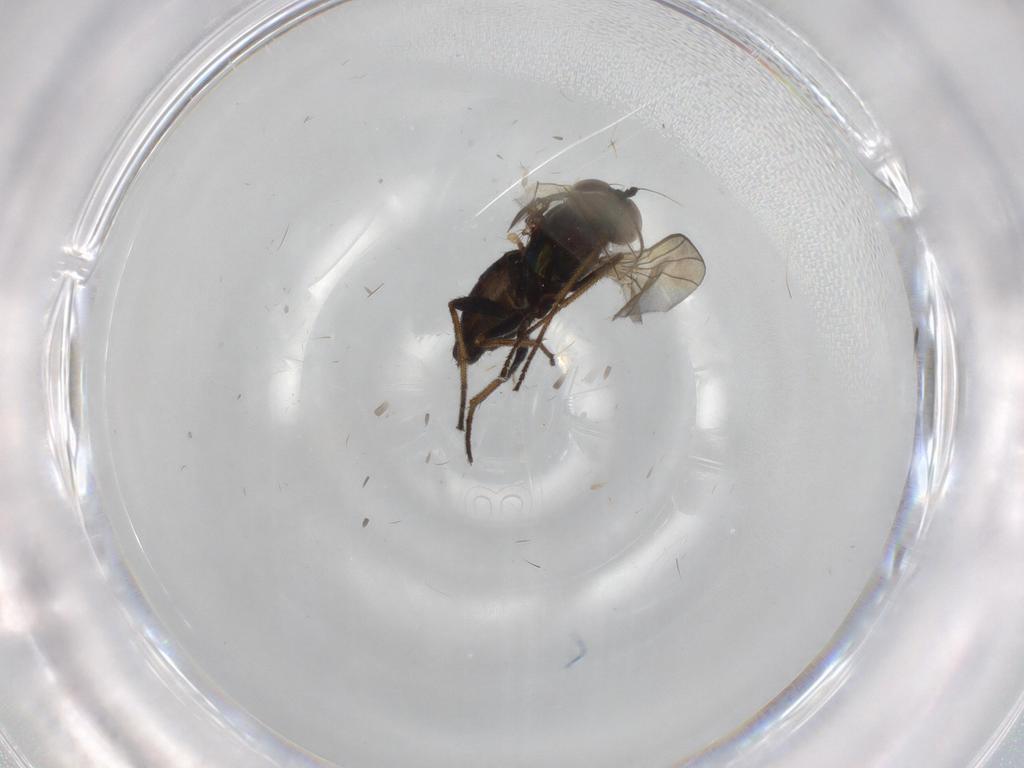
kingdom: Animalia
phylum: Arthropoda
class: Insecta
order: Diptera
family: Dolichopodidae
